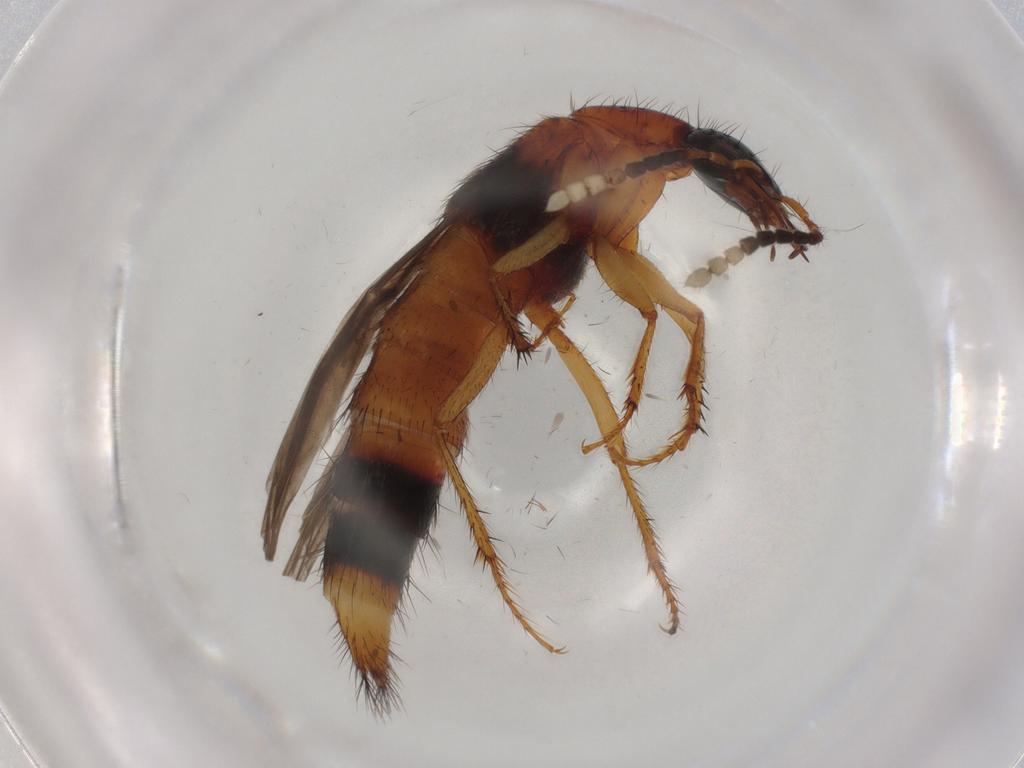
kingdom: Animalia
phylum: Arthropoda
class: Insecta
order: Coleoptera
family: Staphylinidae
